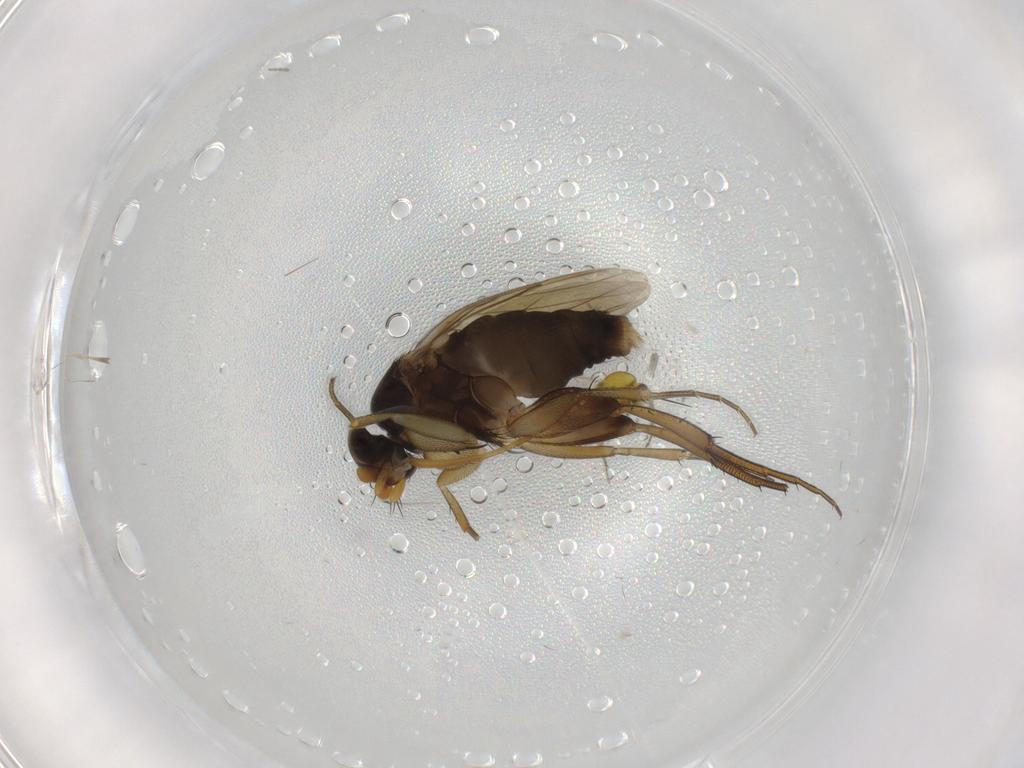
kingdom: Animalia
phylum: Arthropoda
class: Insecta
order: Diptera
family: Phoridae
